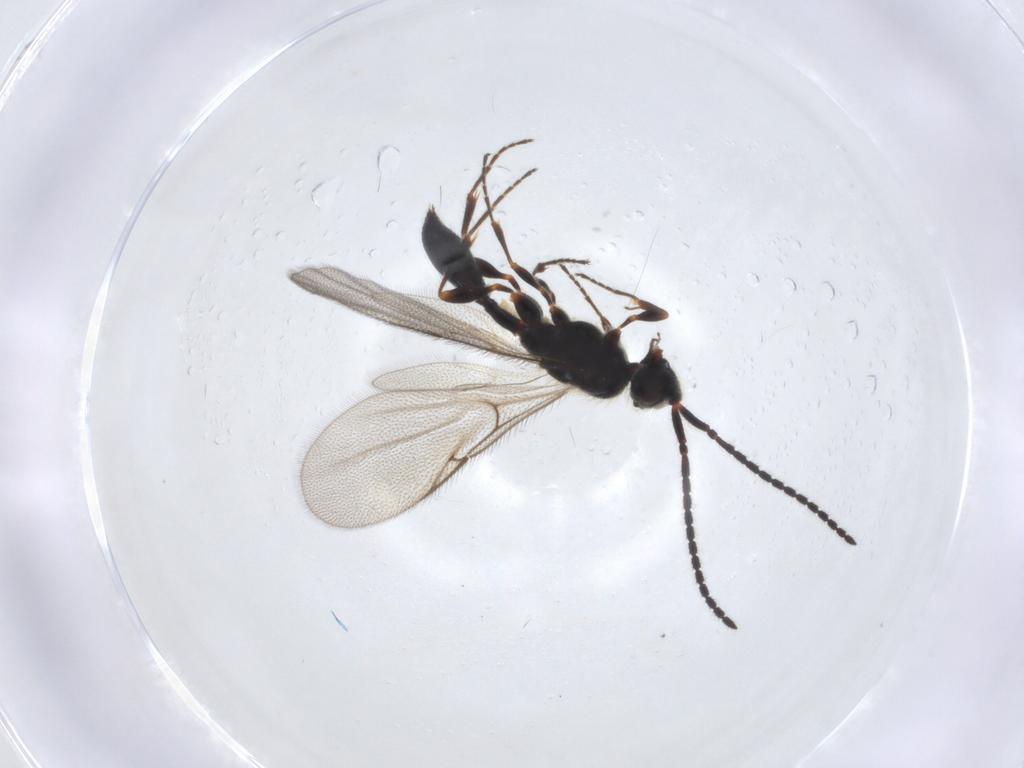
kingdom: Animalia
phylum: Arthropoda
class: Insecta
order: Hymenoptera
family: Diapriidae
